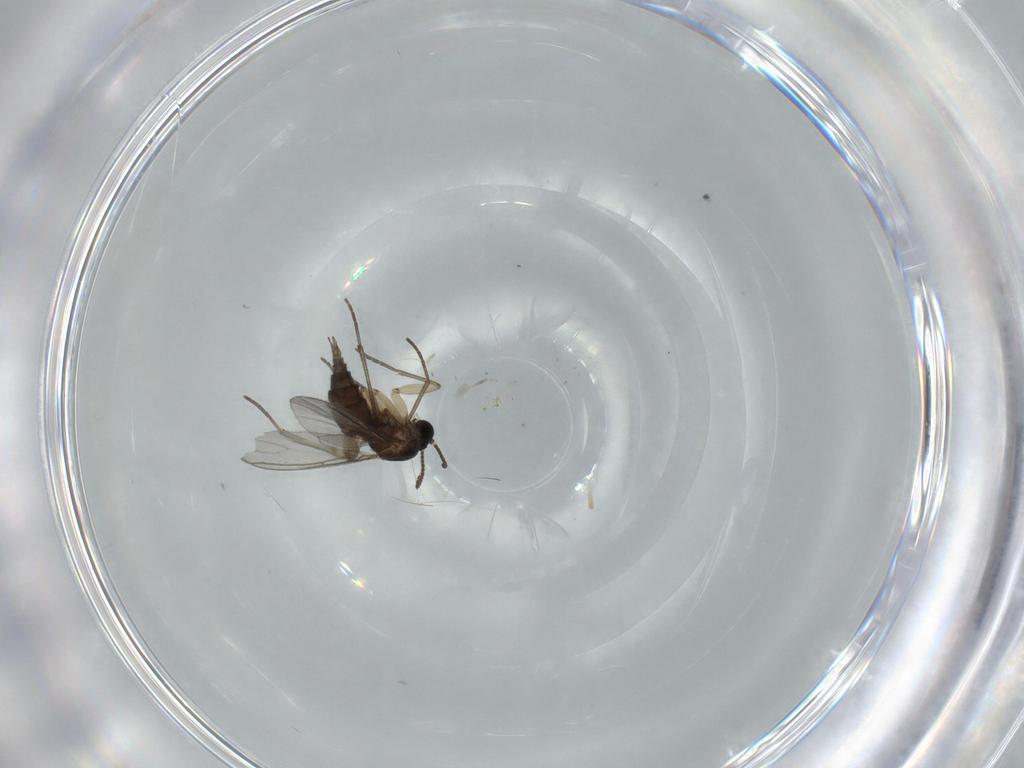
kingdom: Animalia
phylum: Arthropoda
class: Insecta
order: Diptera
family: Sciaridae
